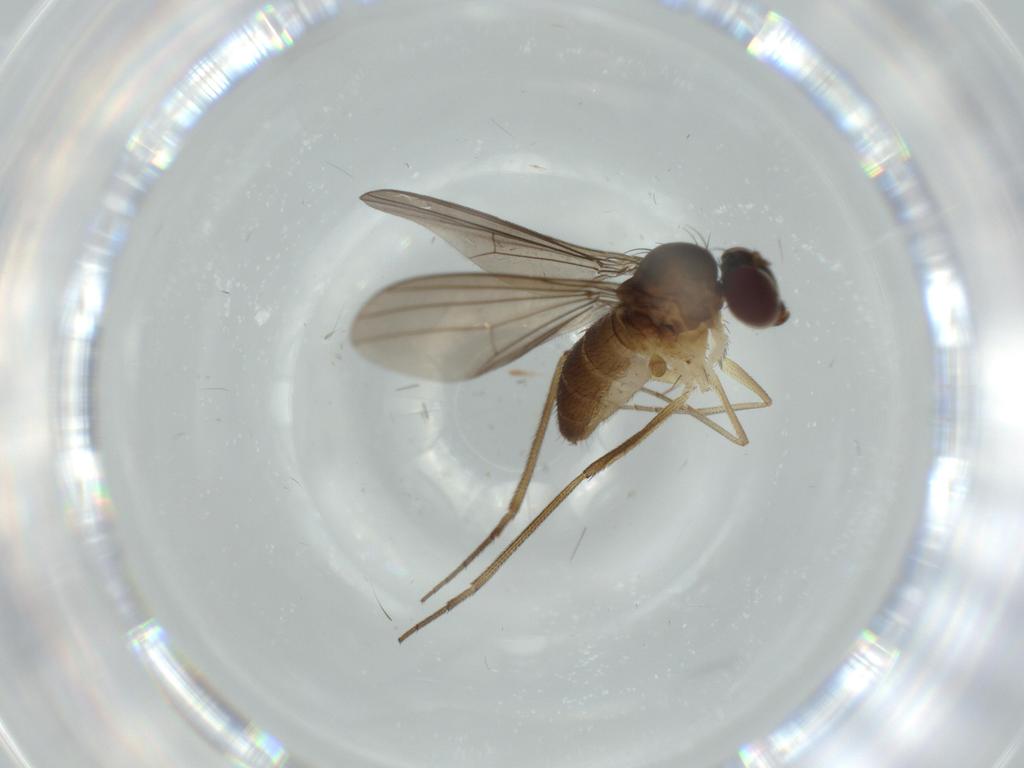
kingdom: Animalia
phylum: Arthropoda
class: Insecta
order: Diptera
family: Dolichopodidae
